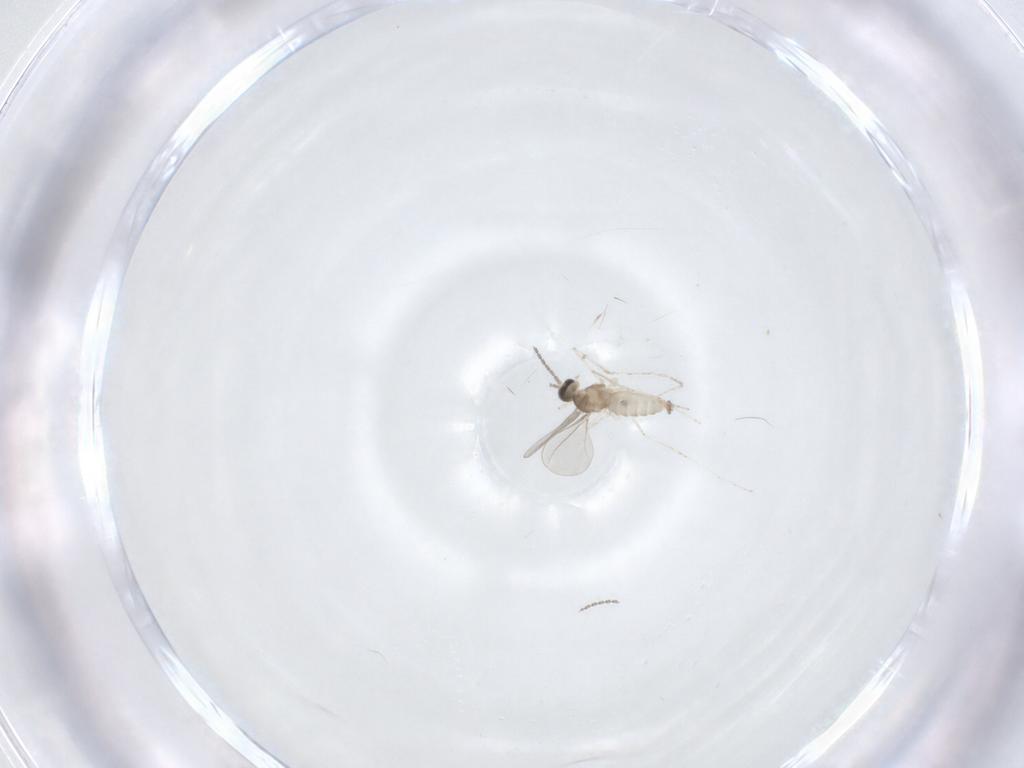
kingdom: Animalia
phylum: Arthropoda
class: Insecta
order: Diptera
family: Cecidomyiidae
